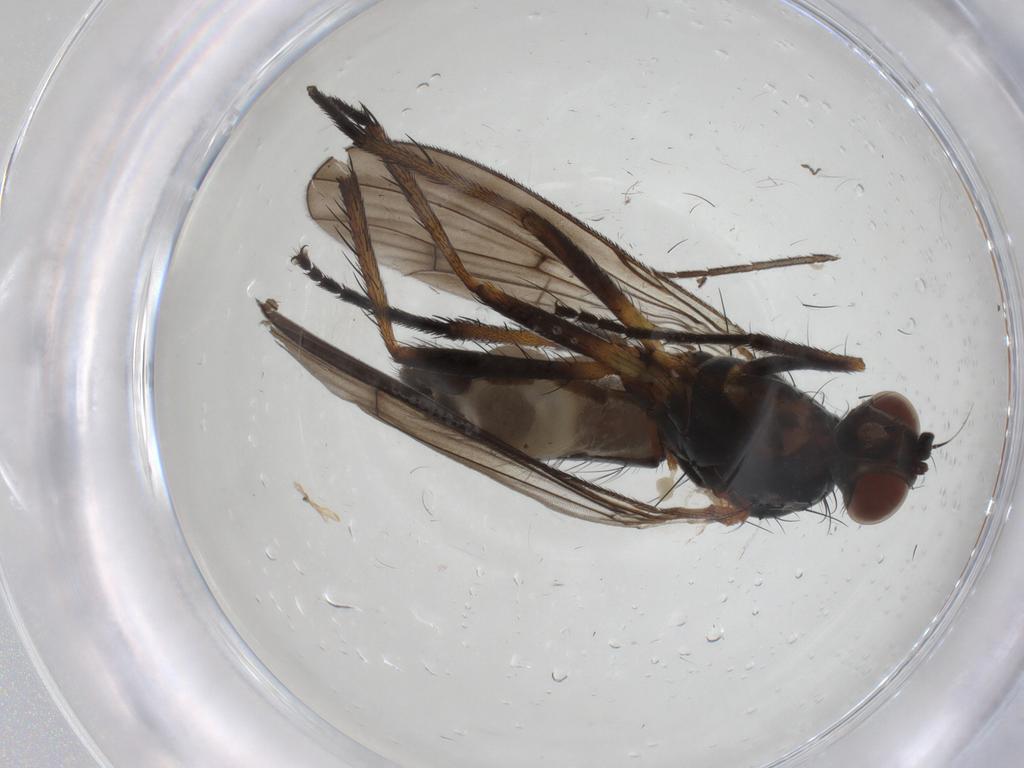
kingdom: Animalia
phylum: Arthropoda
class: Insecta
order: Diptera
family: Anthomyiidae
